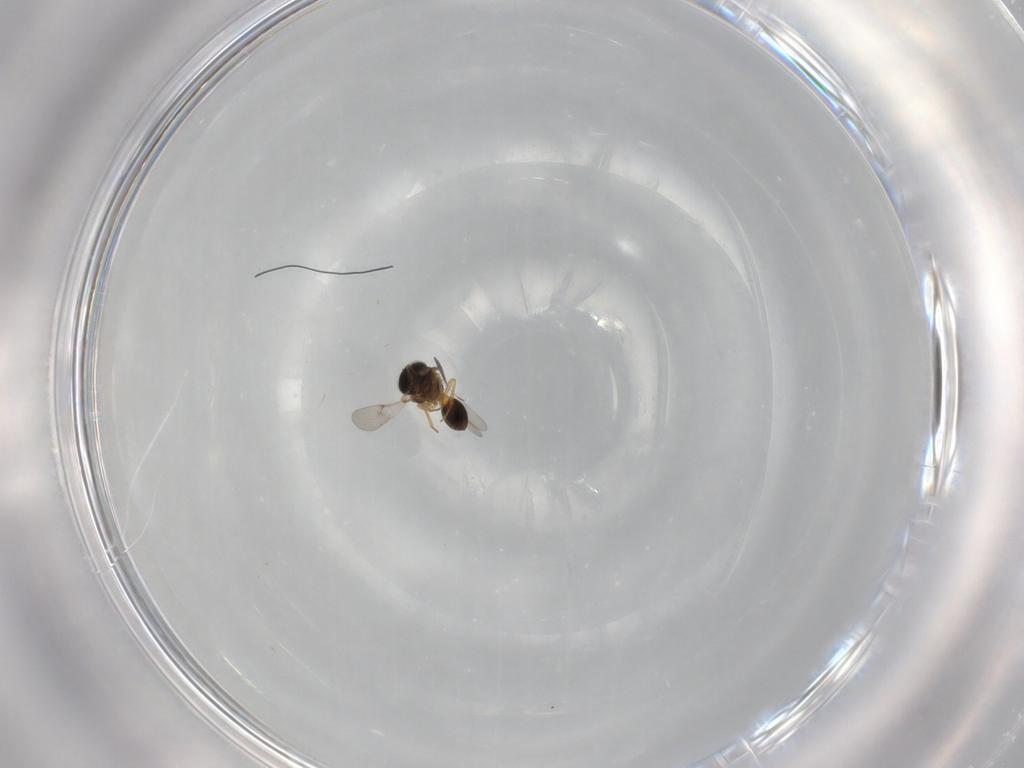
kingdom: Animalia
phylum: Arthropoda
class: Insecta
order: Hymenoptera
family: Scelionidae
